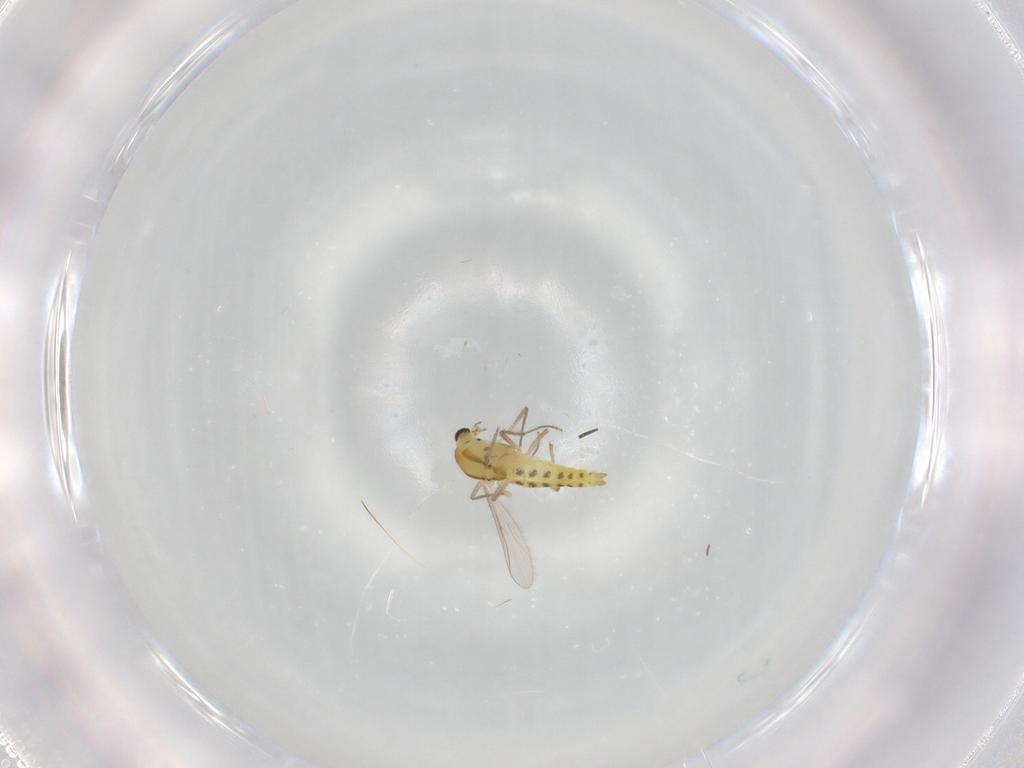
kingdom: Animalia
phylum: Arthropoda
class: Insecta
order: Diptera
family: Chironomidae
